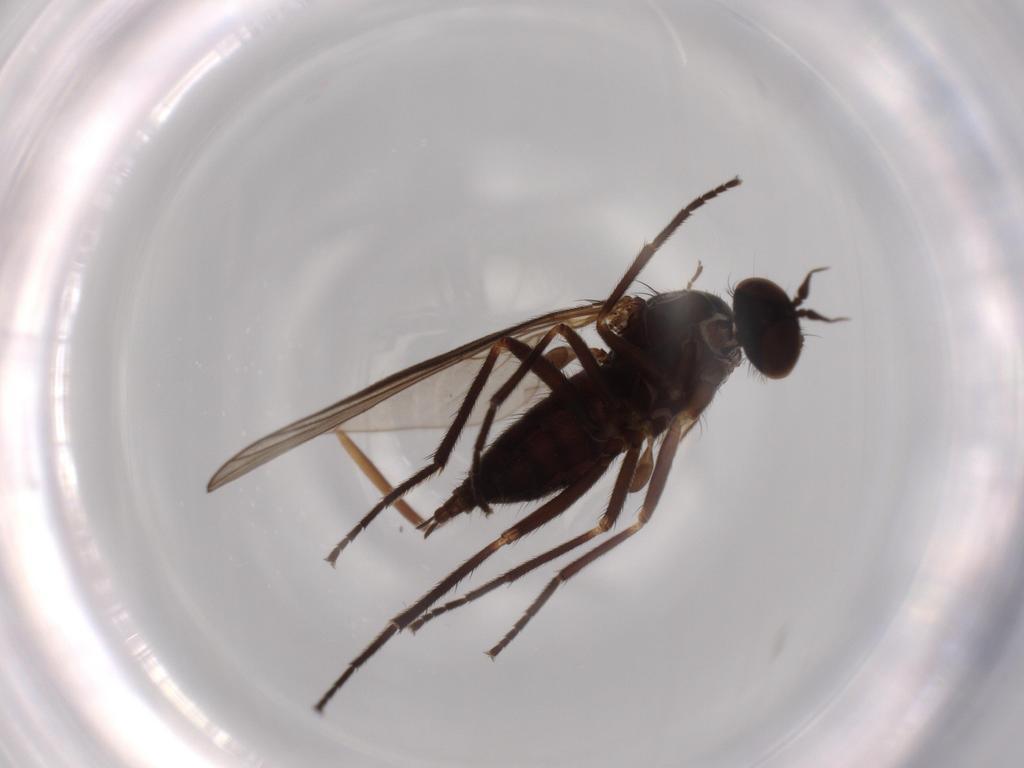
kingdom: Animalia
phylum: Arthropoda
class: Insecta
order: Diptera
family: Empididae
